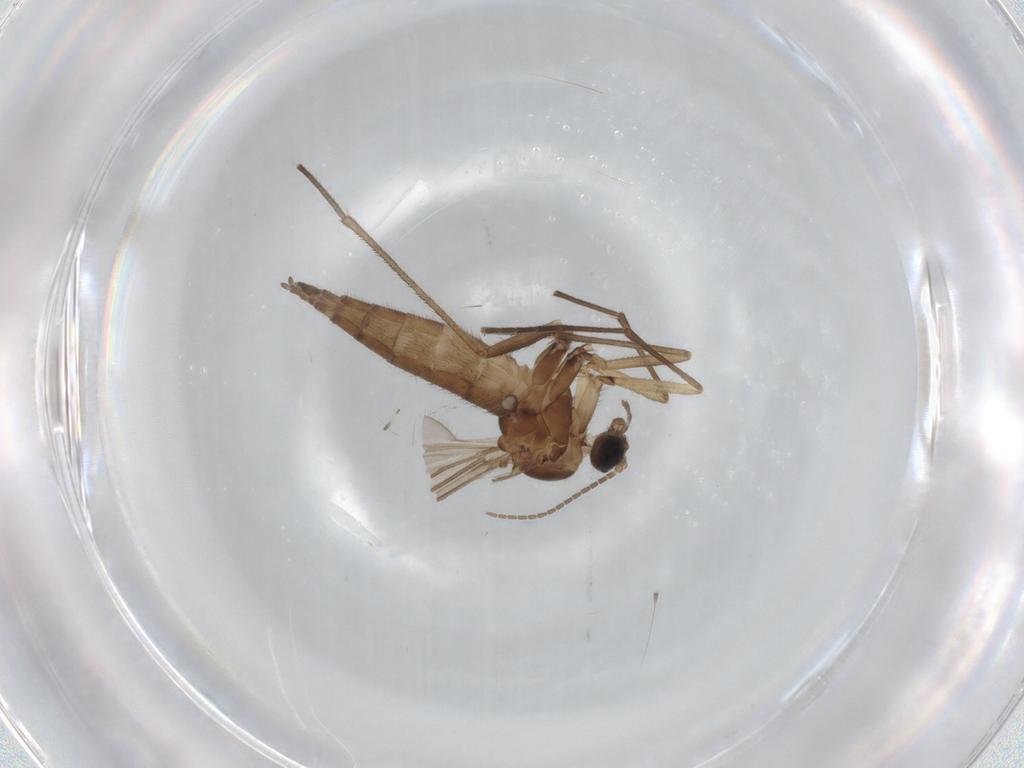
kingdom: Animalia
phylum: Arthropoda
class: Insecta
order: Diptera
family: Sciaridae
